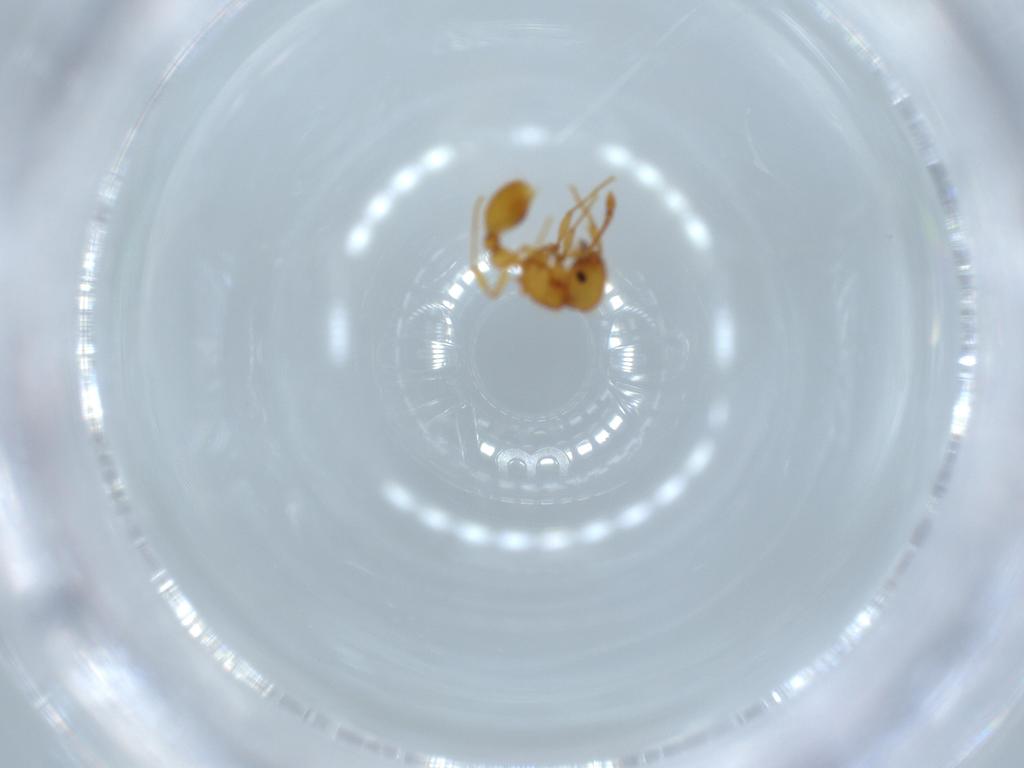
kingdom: Animalia
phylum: Arthropoda
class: Insecta
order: Hymenoptera
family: Formicidae
